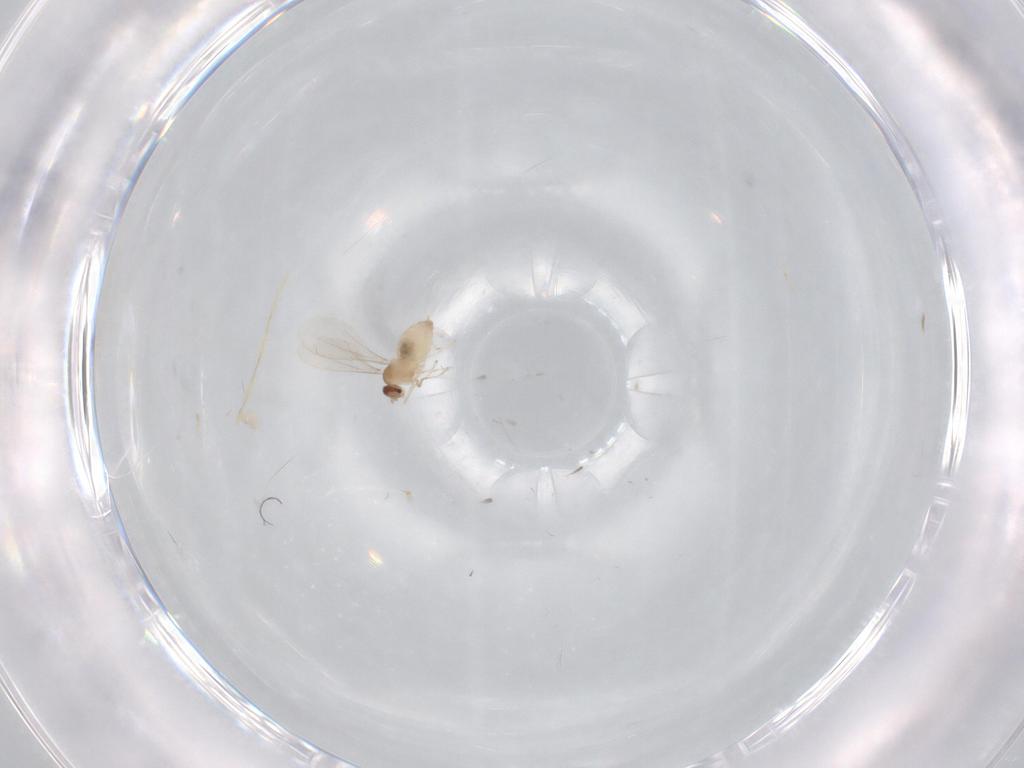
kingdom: Animalia
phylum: Arthropoda
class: Insecta
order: Diptera
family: Cecidomyiidae
